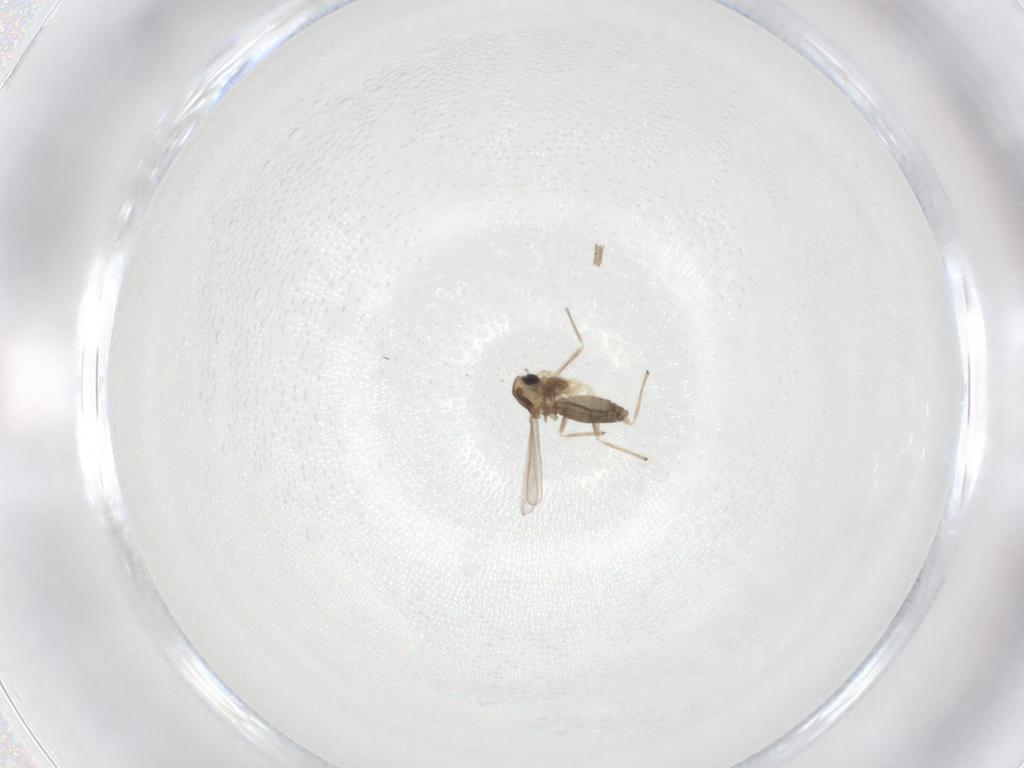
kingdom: Animalia
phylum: Arthropoda
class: Insecta
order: Diptera
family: Chironomidae
